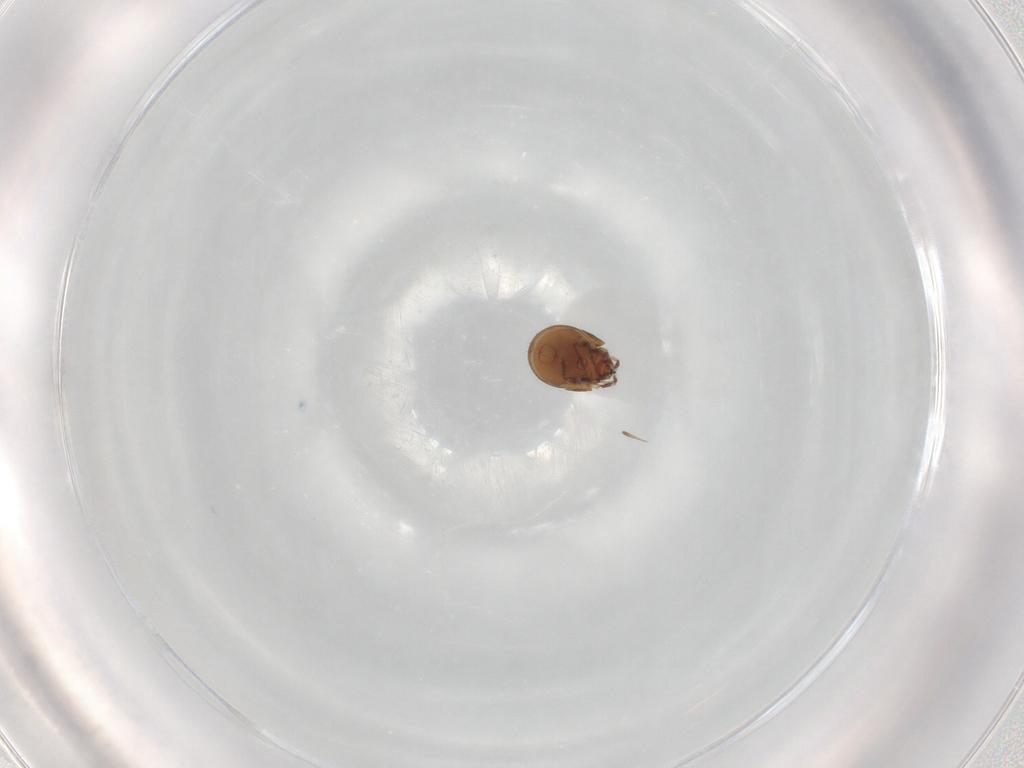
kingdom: Animalia
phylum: Arthropoda
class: Arachnida
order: Sarcoptiformes
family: Humerobatidae
